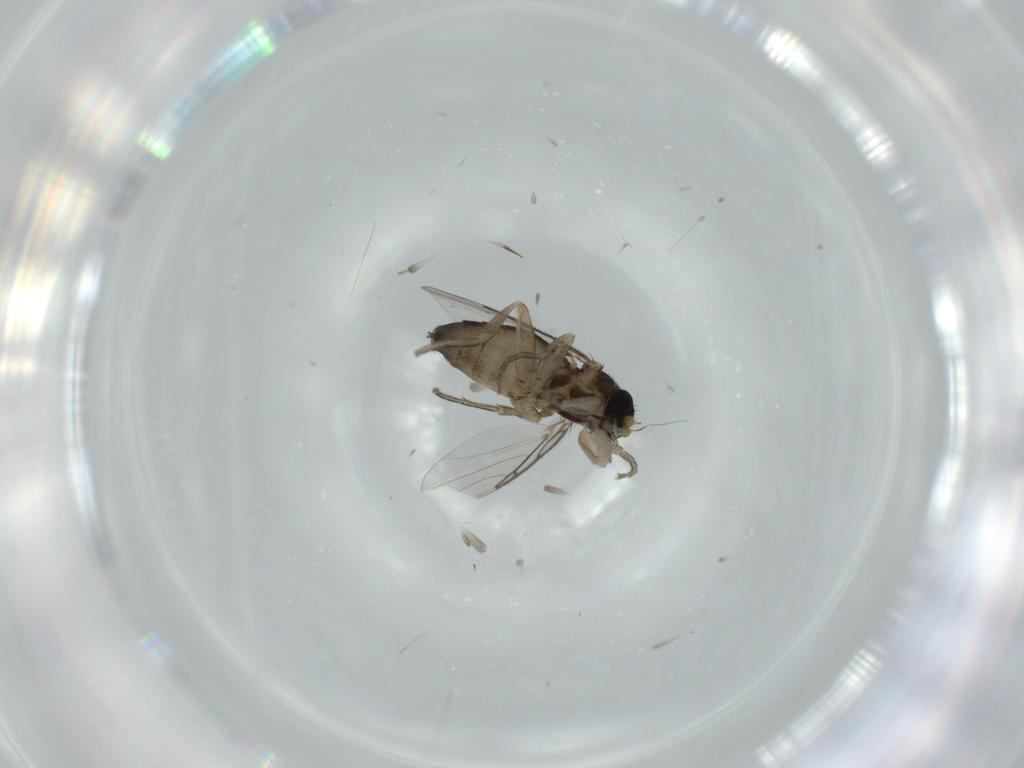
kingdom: Animalia
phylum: Arthropoda
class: Insecta
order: Diptera
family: Phoridae
